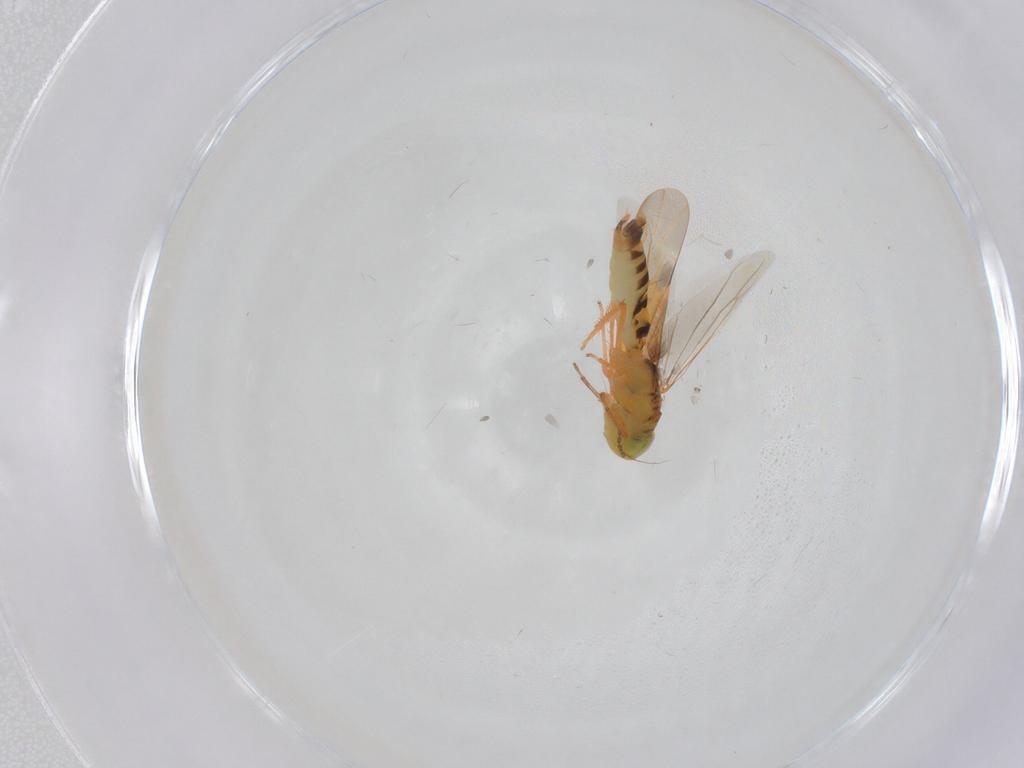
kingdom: Animalia
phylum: Arthropoda
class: Insecta
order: Hemiptera
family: Cicadellidae
